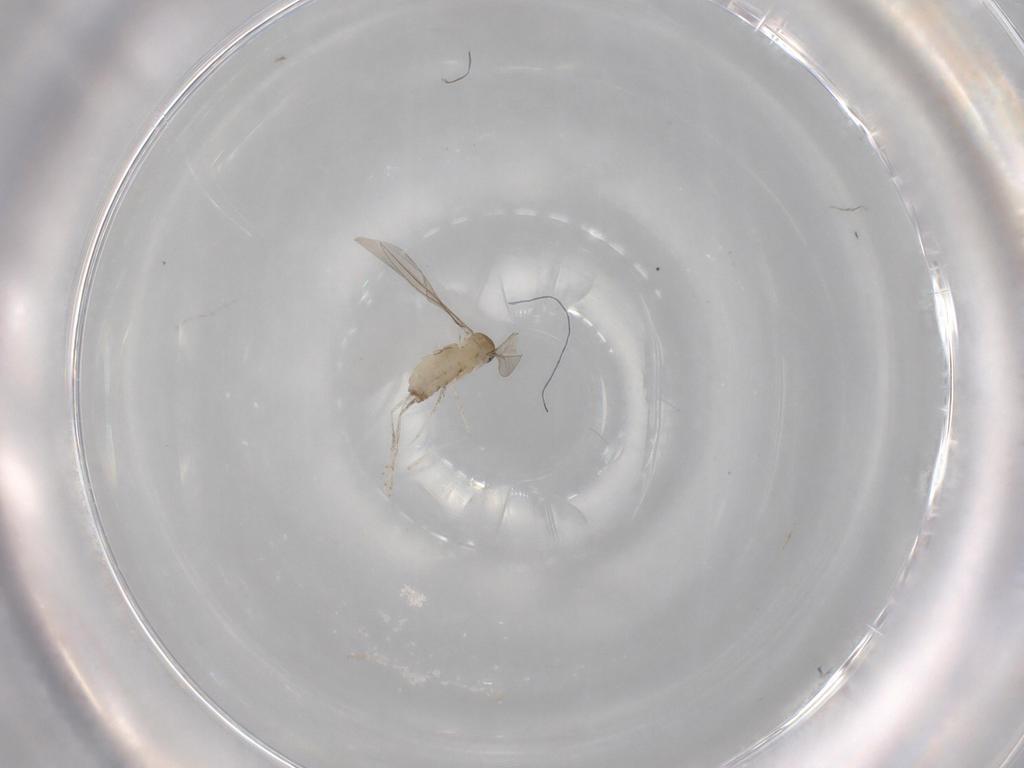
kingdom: Animalia
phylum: Arthropoda
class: Insecta
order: Diptera
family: Cecidomyiidae
